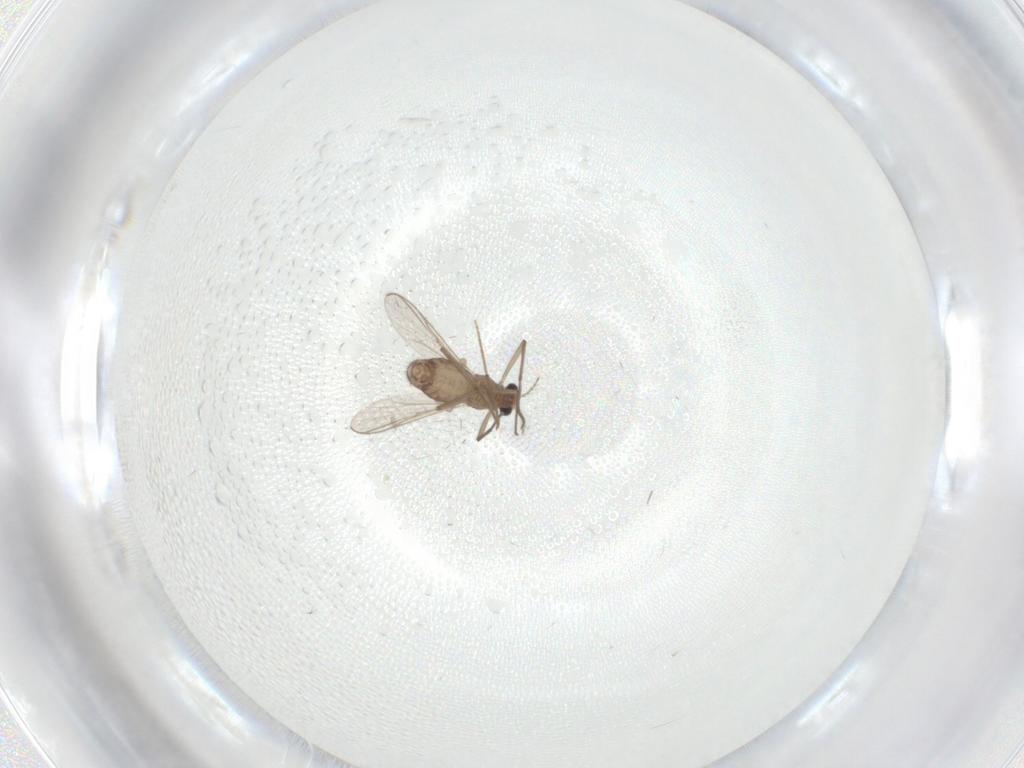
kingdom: Animalia
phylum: Arthropoda
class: Insecta
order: Diptera
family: Chironomidae
